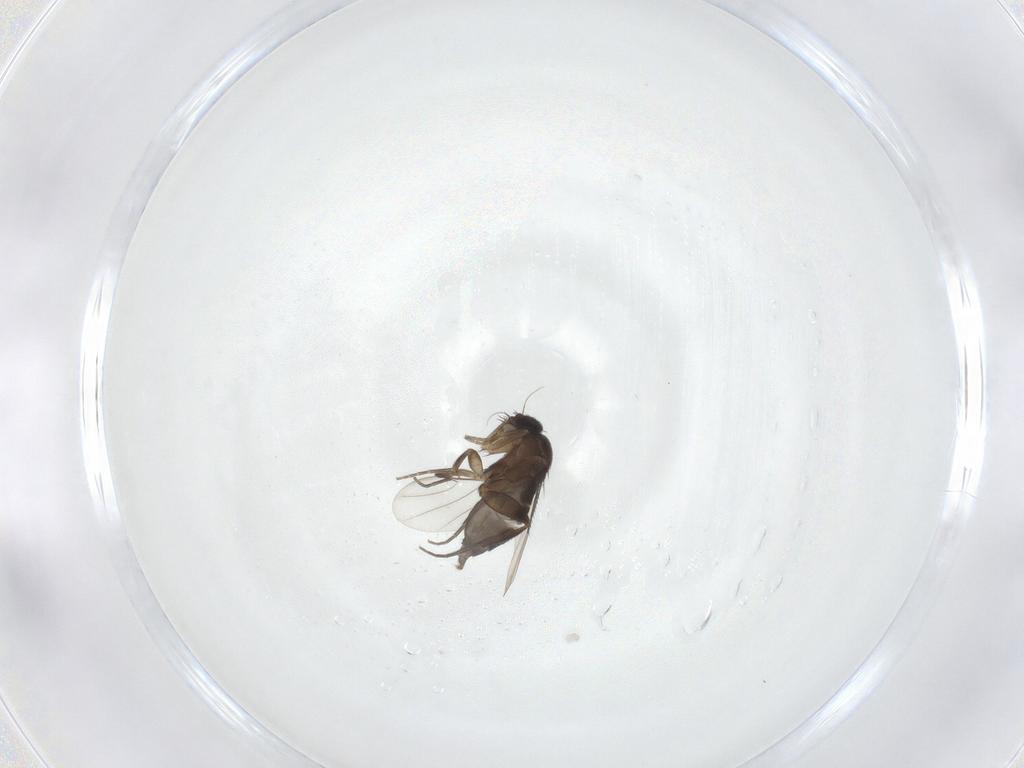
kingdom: Animalia
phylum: Arthropoda
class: Insecta
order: Diptera
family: Phoridae
